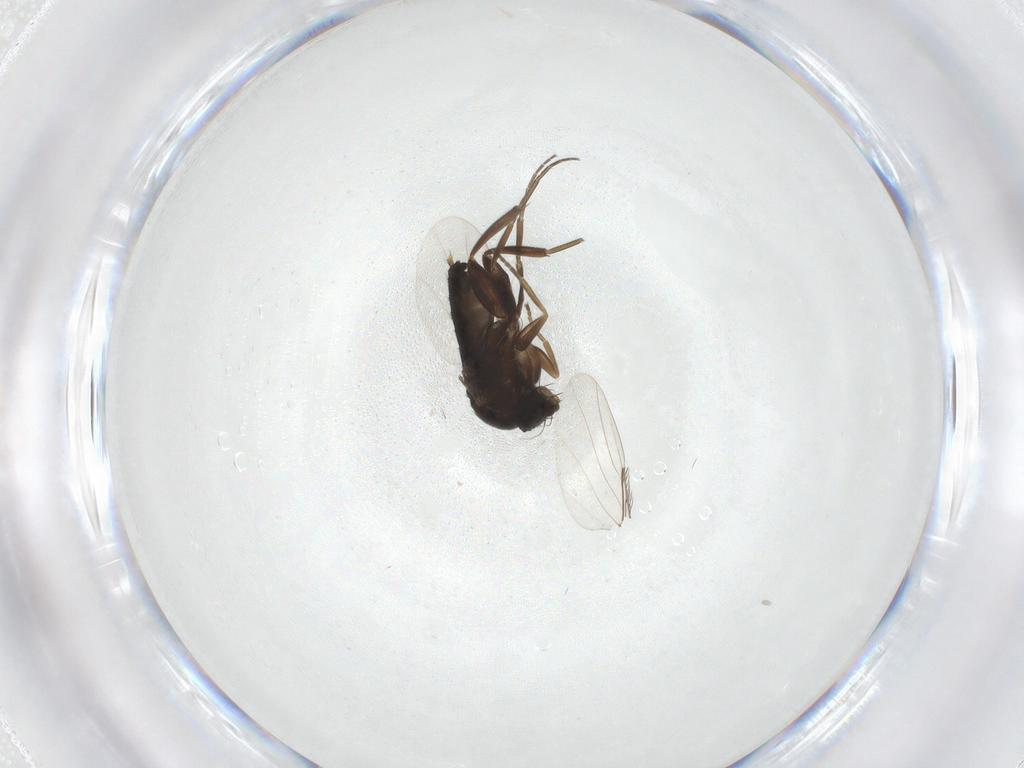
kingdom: Animalia
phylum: Arthropoda
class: Insecta
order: Diptera
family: Phoridae
